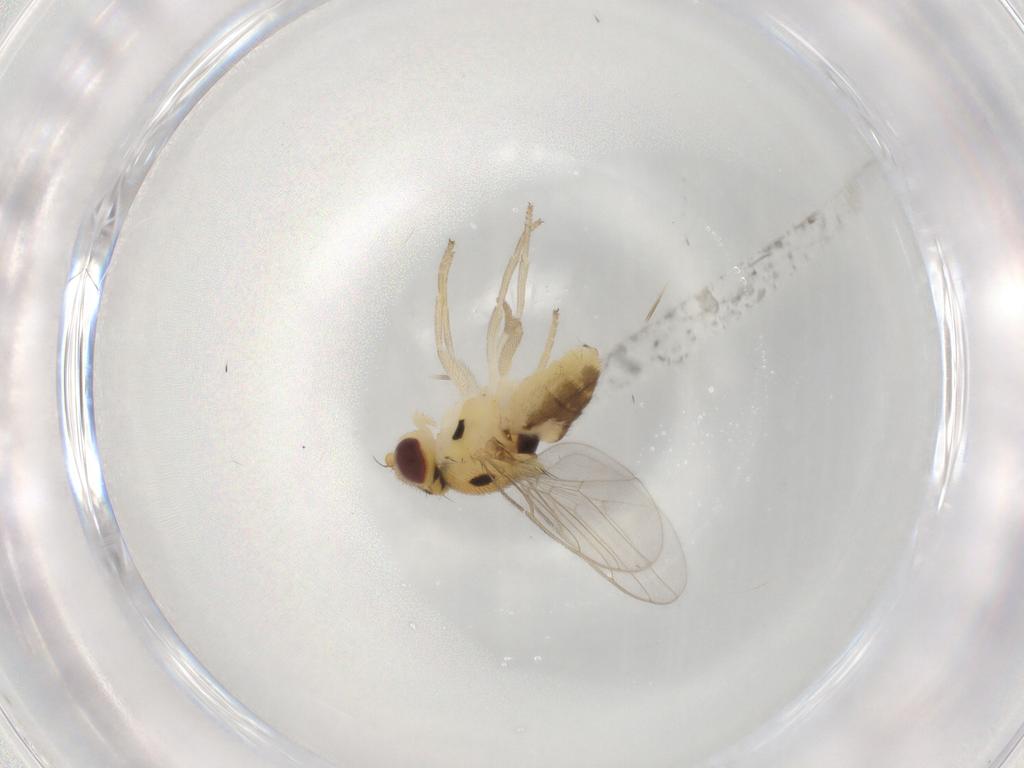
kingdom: Animalia
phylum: Arthropoda
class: Insecta
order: Diptera
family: Chloropidae
